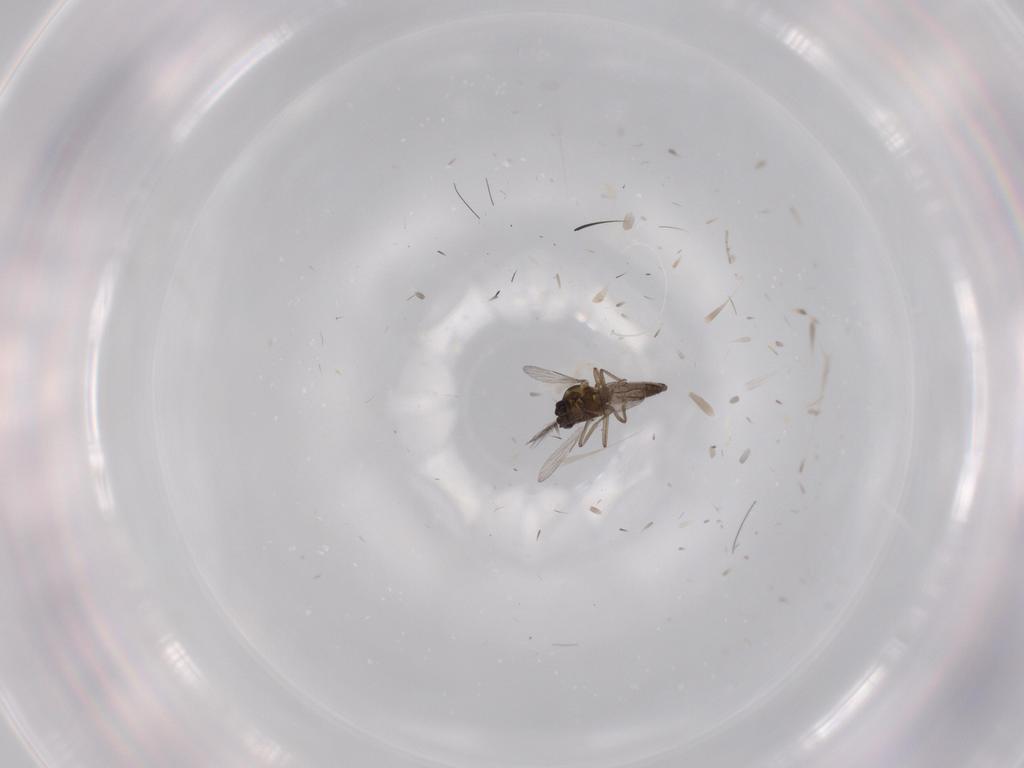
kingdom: Animalia
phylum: Arthropoda
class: Insecta
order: Diptera
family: Ceratopogonidae
